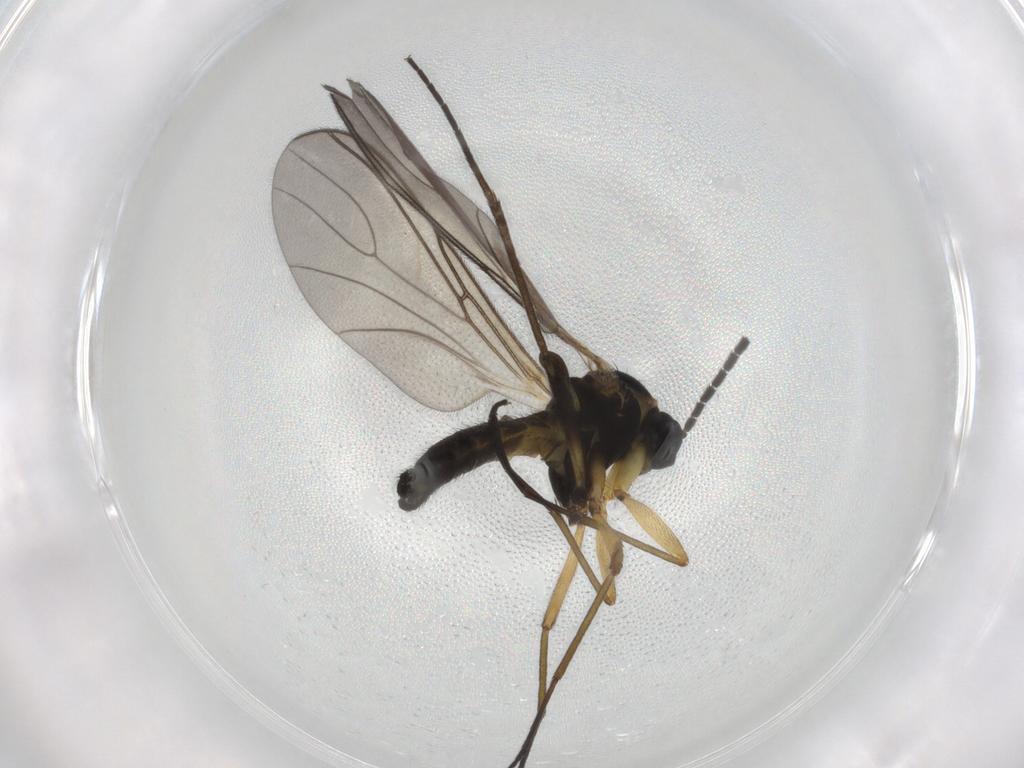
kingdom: Animalia
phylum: Arthropoda
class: Insecta
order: Diptera
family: Sciaridae
